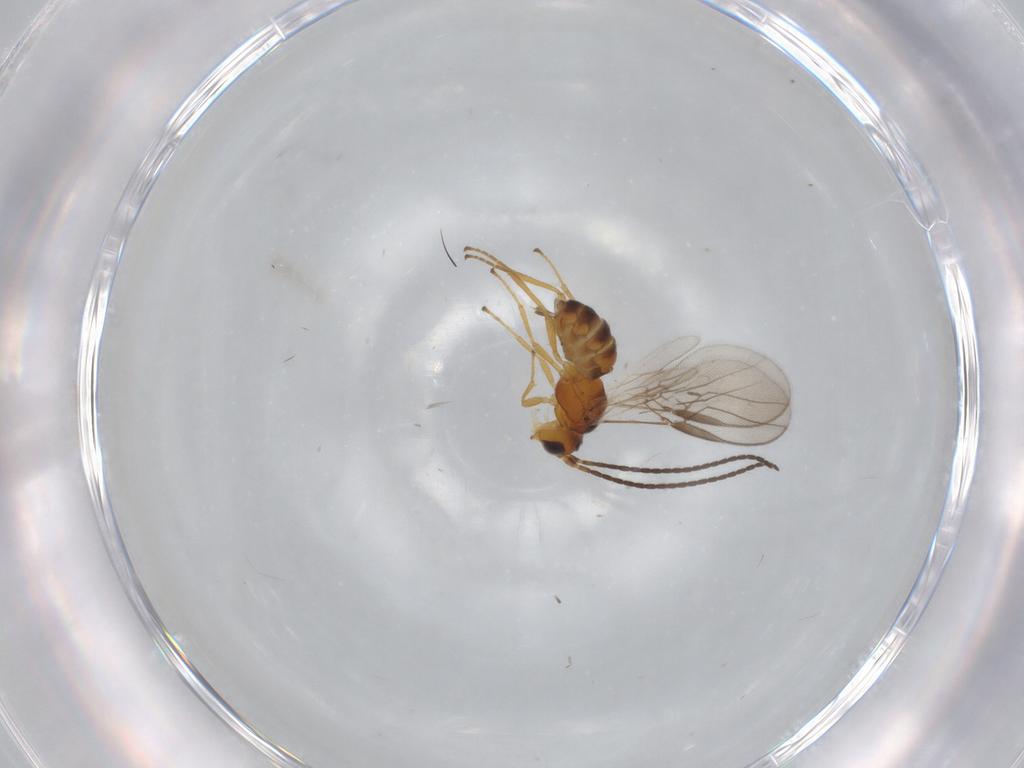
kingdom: Animalia
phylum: Arthropoda
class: Insecta
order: Hymenoptera
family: Braconidae
